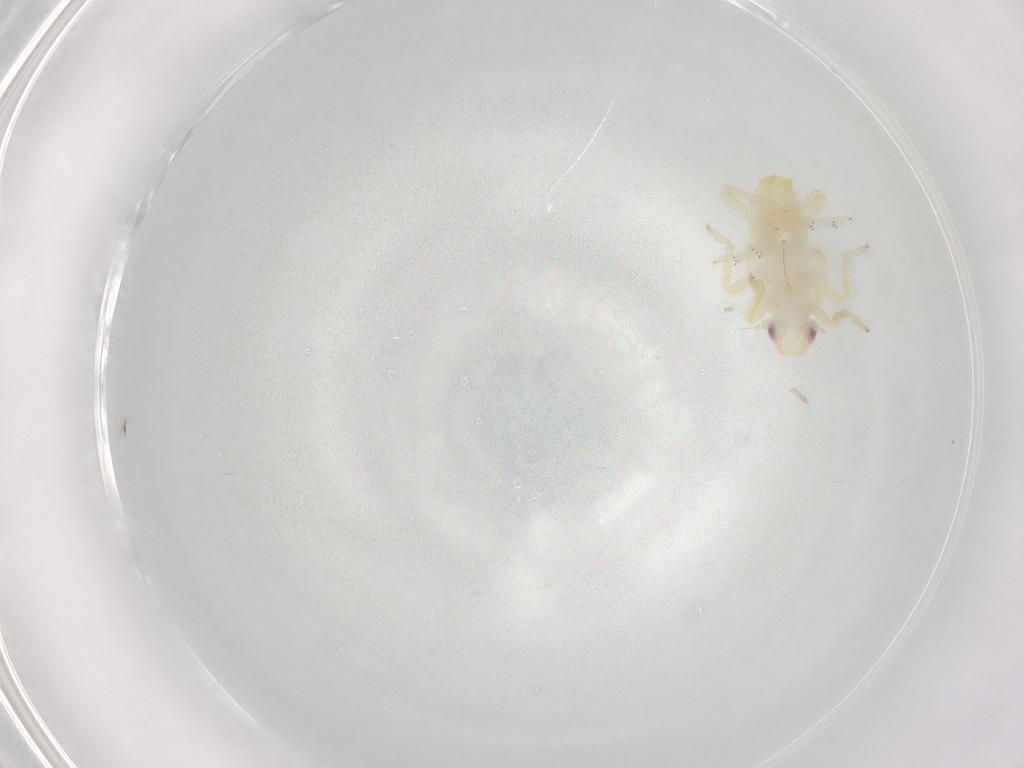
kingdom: Animalia
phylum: Arthropoda
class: Insecta
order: Hemiptera
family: Tropiduchidae
